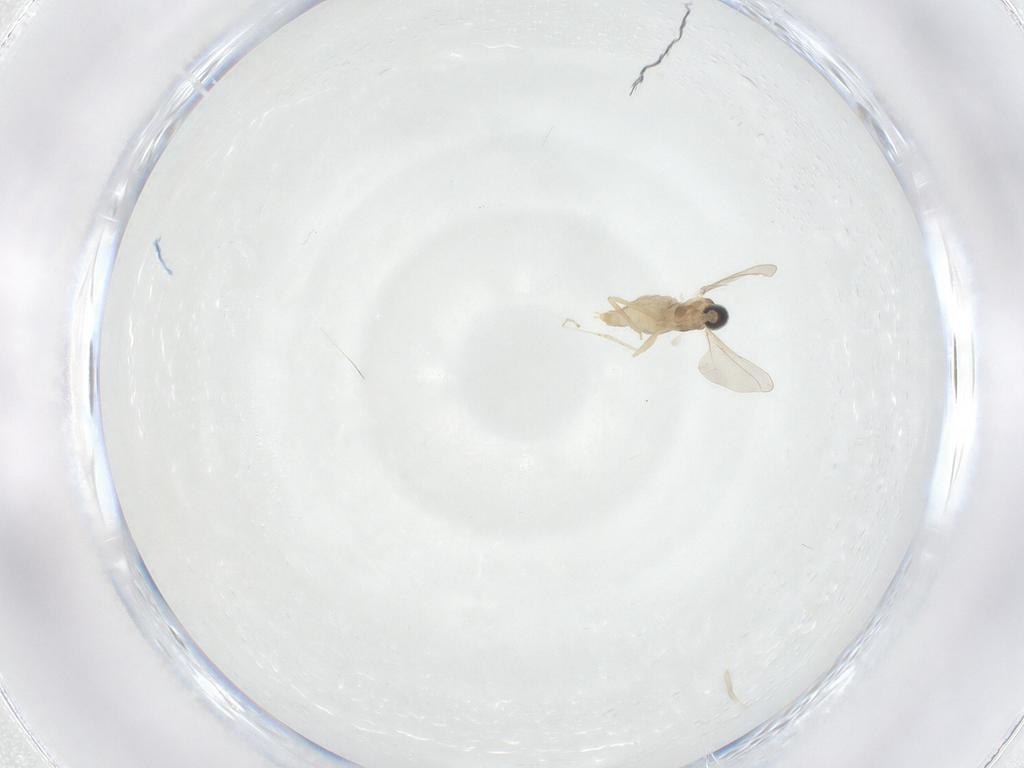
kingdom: Animalia
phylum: Arthropoda
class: Insecta
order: Diptera
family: Cecidomyiidae
